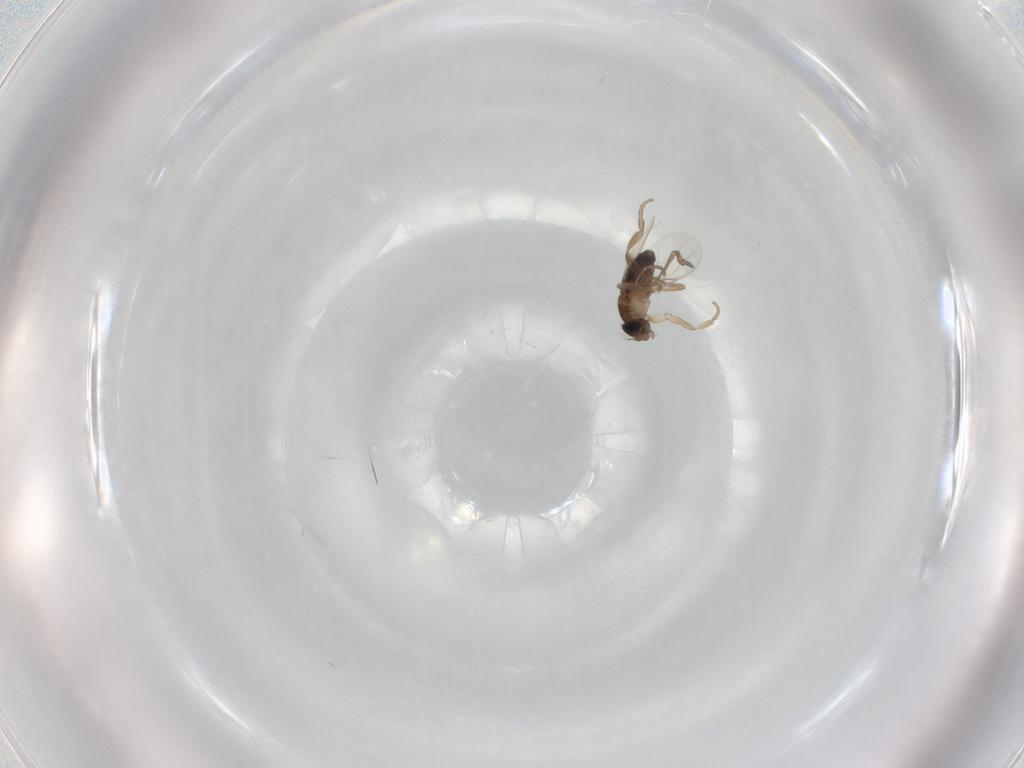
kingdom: Animalia
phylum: Arthropoda
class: Insecta
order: Diptera
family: Phoridae
